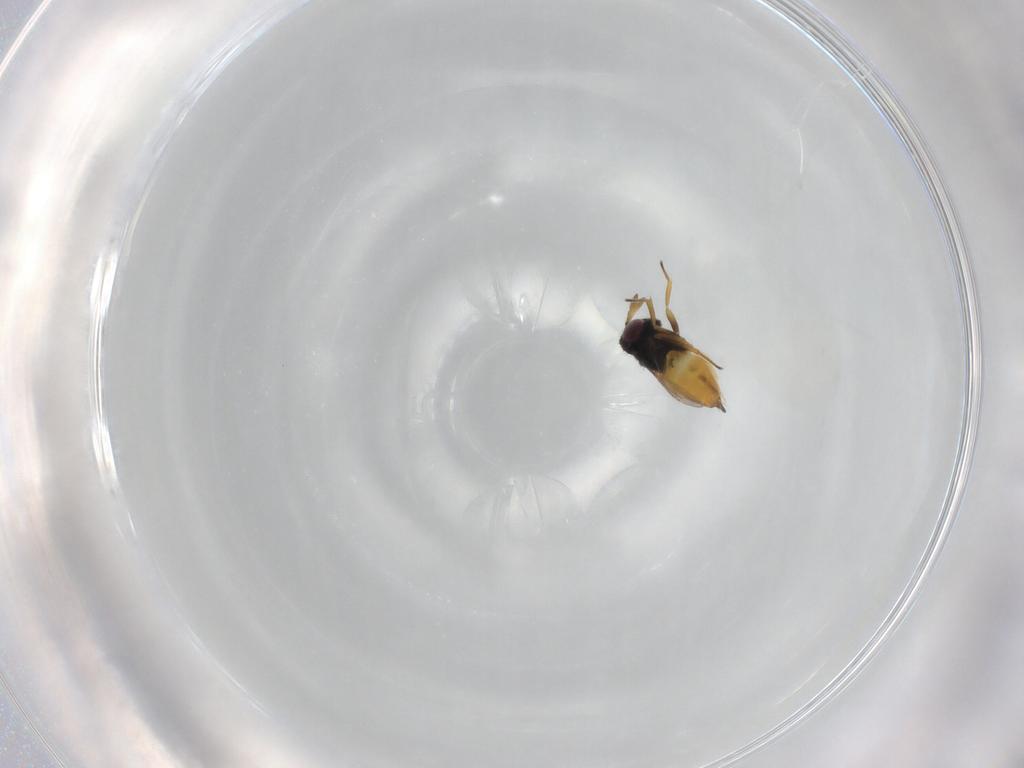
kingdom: Animalia
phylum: Arthropoda
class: Insecta
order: Hymenoptera
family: Aphelinidae
